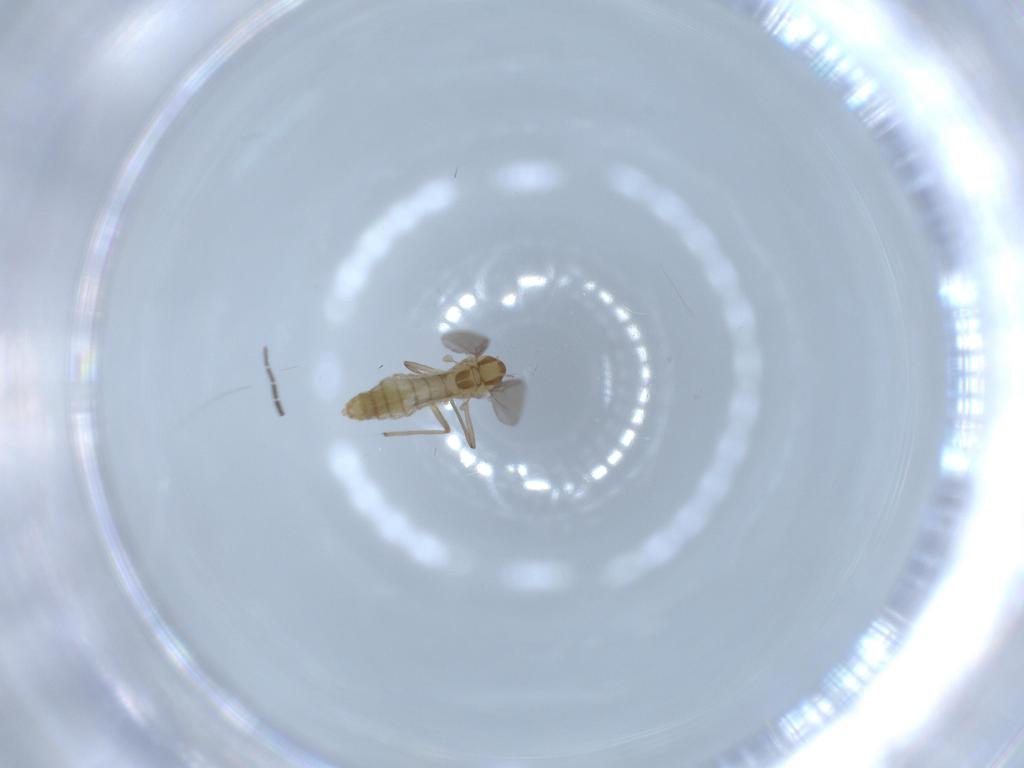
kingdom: Animalia
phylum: Arthropoda
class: Insecta
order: Diptera
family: Chironomidae
